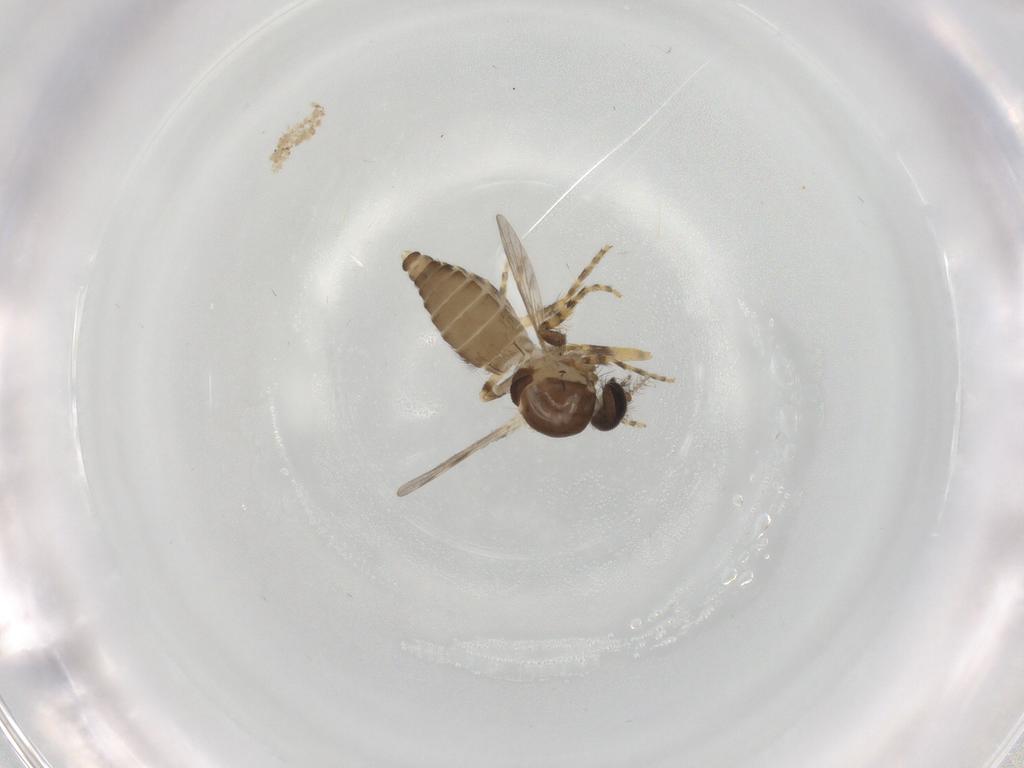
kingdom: Animalia
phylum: Arthropoda
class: Insecta
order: Diptera
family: Ceratopogonidae
